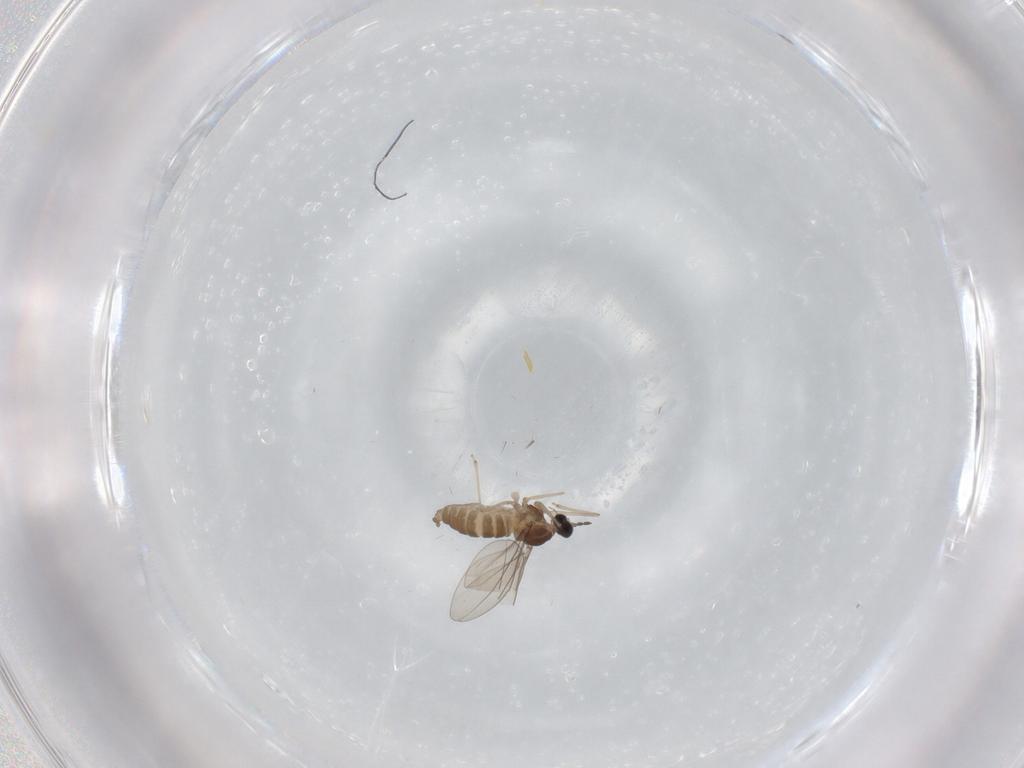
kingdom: Animalia
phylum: Arthropoda
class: Insecta
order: Diptera
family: Cecidomyiidae
